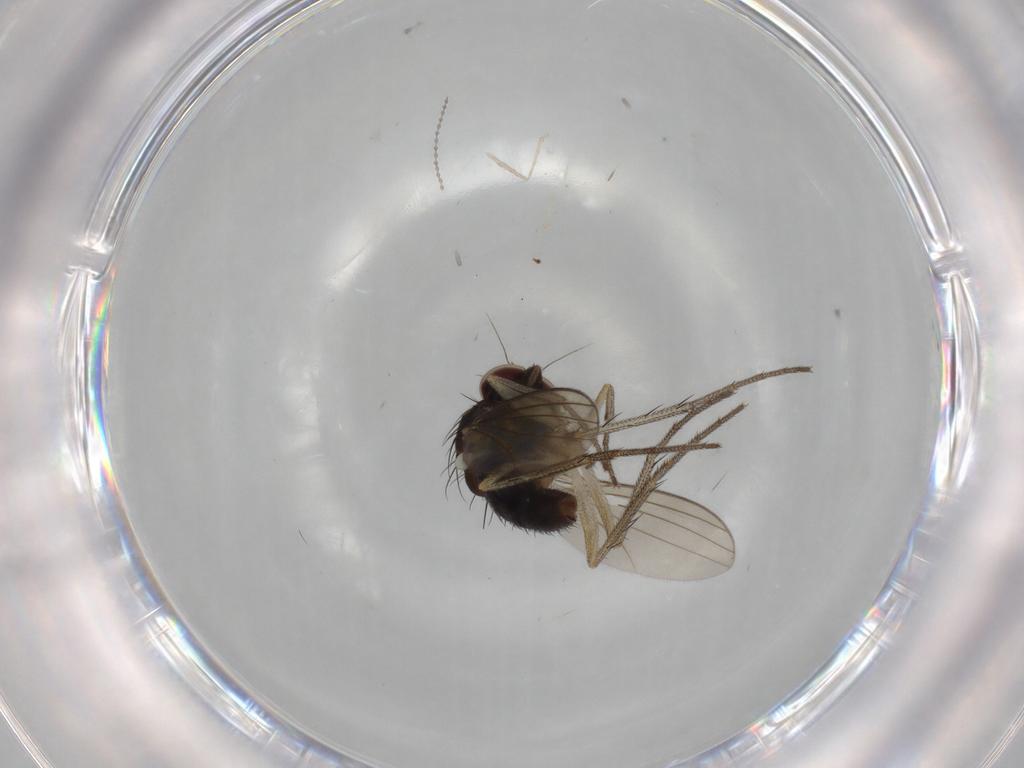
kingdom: Animalia
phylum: Arthropoda
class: Insecta
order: Diptera
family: Dolichopodidae
